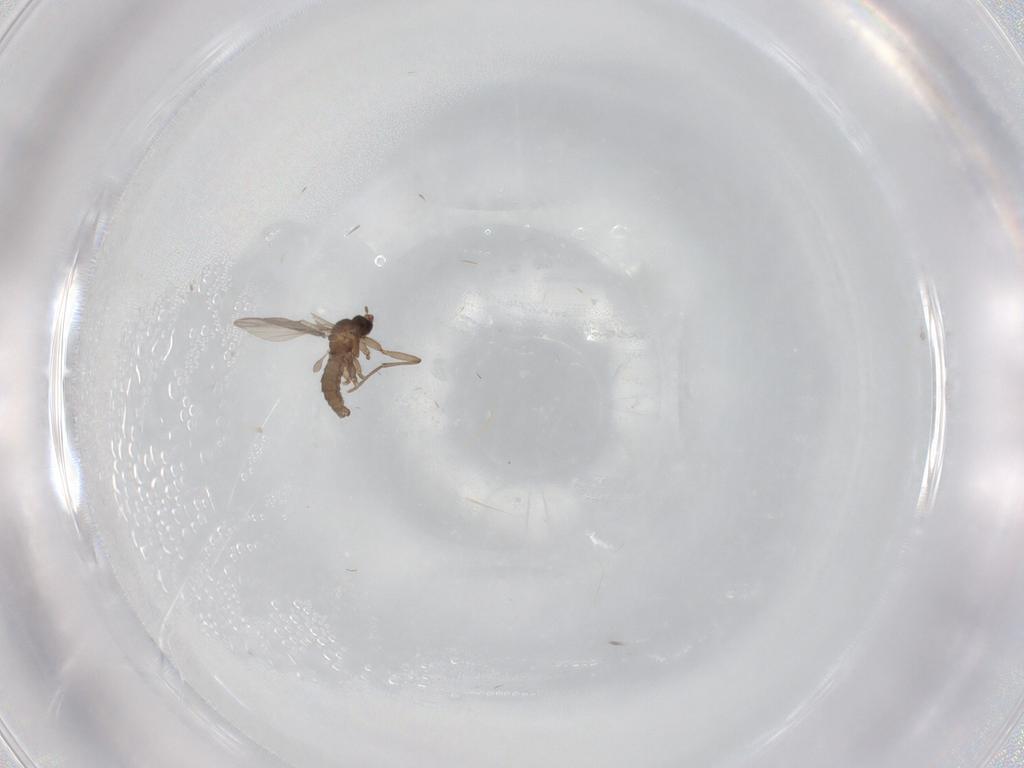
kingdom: Animalia
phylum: Arthropoda
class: Insecta
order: Diptera
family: Sciaridae
